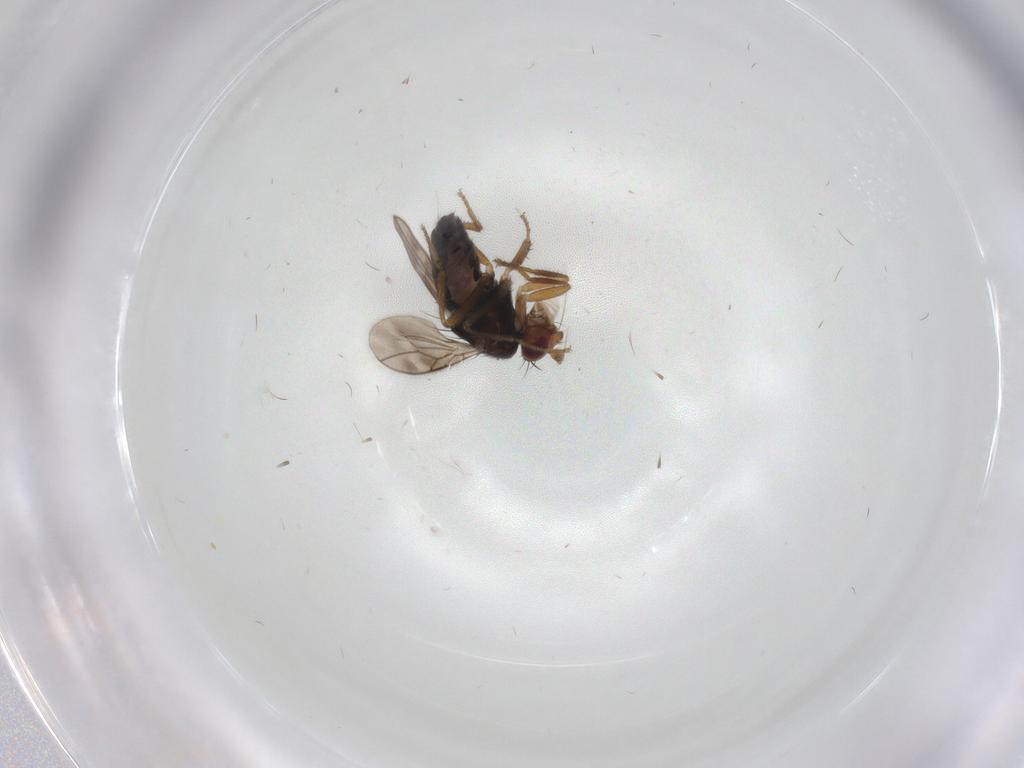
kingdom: Animalia
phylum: Arthropoda
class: Insecta
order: Diptera
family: Sphaeroceridae
